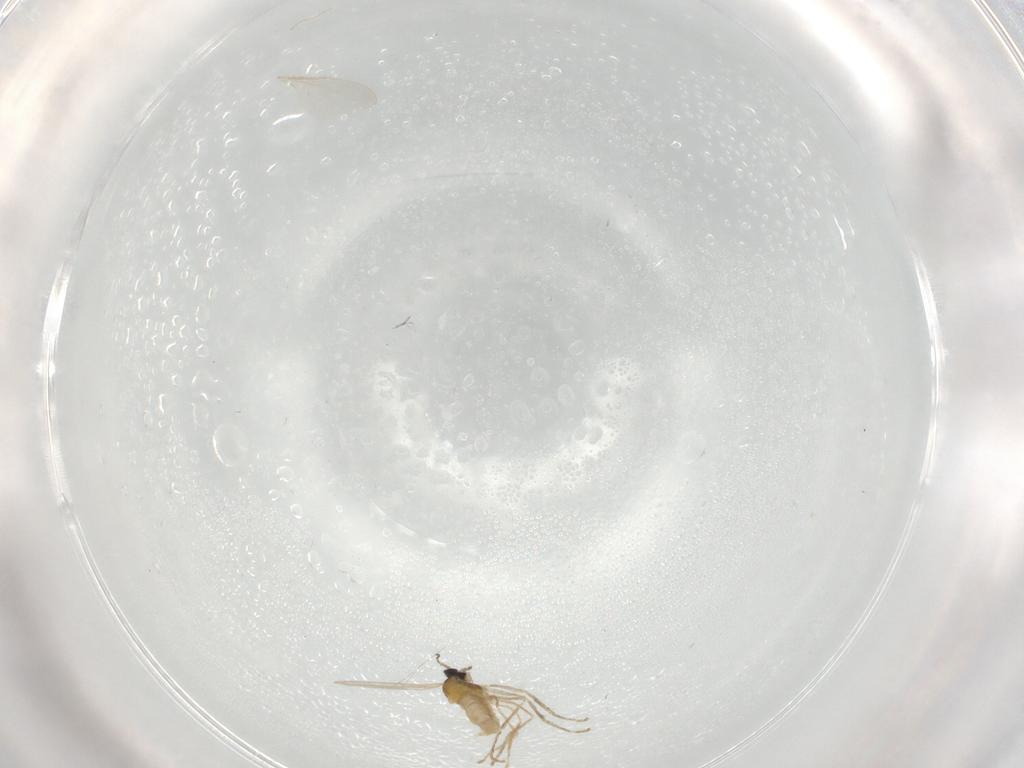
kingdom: Animalia
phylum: Arthropoda
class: Insecta
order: Diptera
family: Cecidomyiidae
